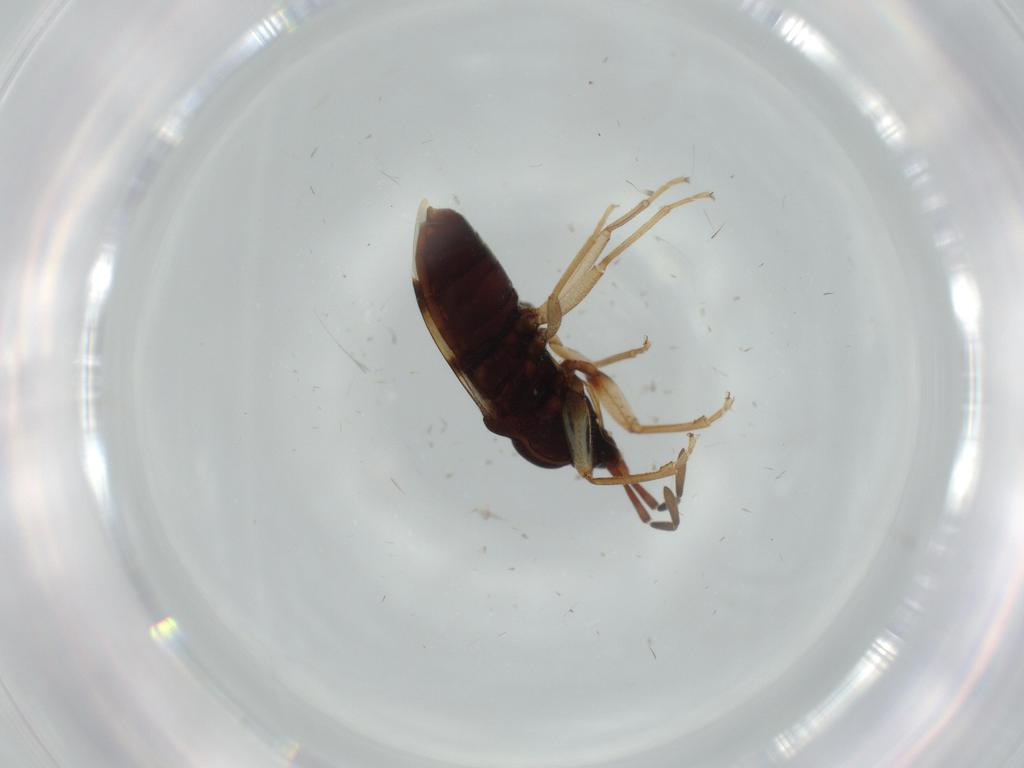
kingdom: Animalia
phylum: Arthropoda
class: Insecta
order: Hemiptera
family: Rhyparochromidae
